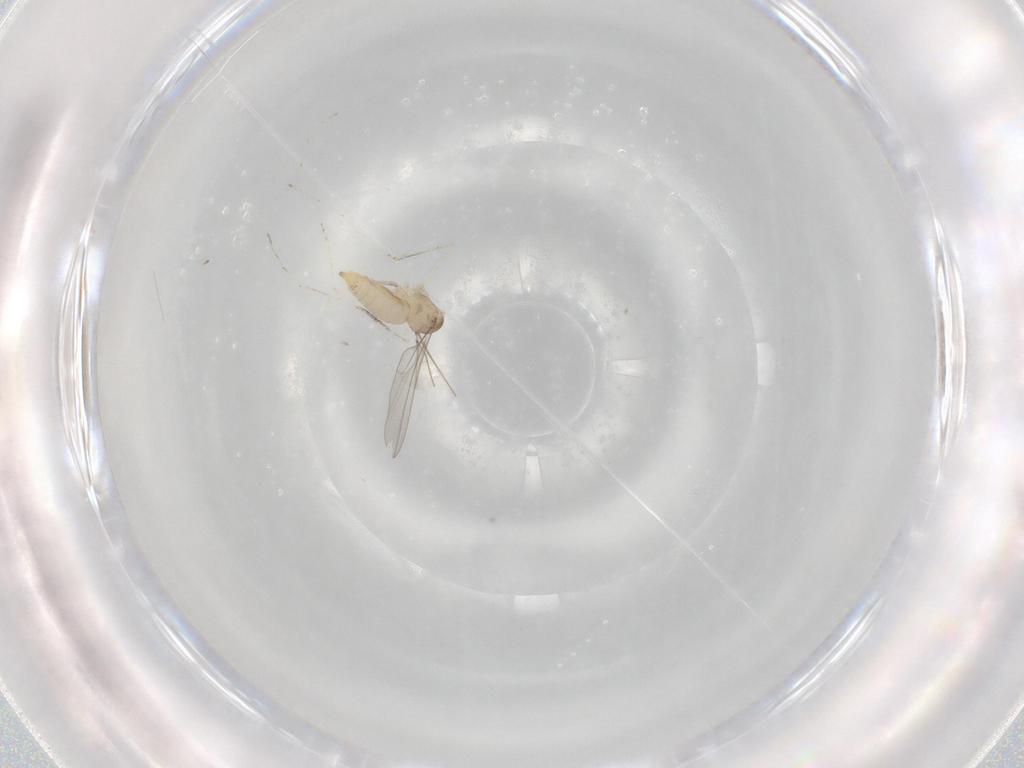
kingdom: Animalia
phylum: Arthropoda
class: Insecta
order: Diptera
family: Cecidomyiidae
